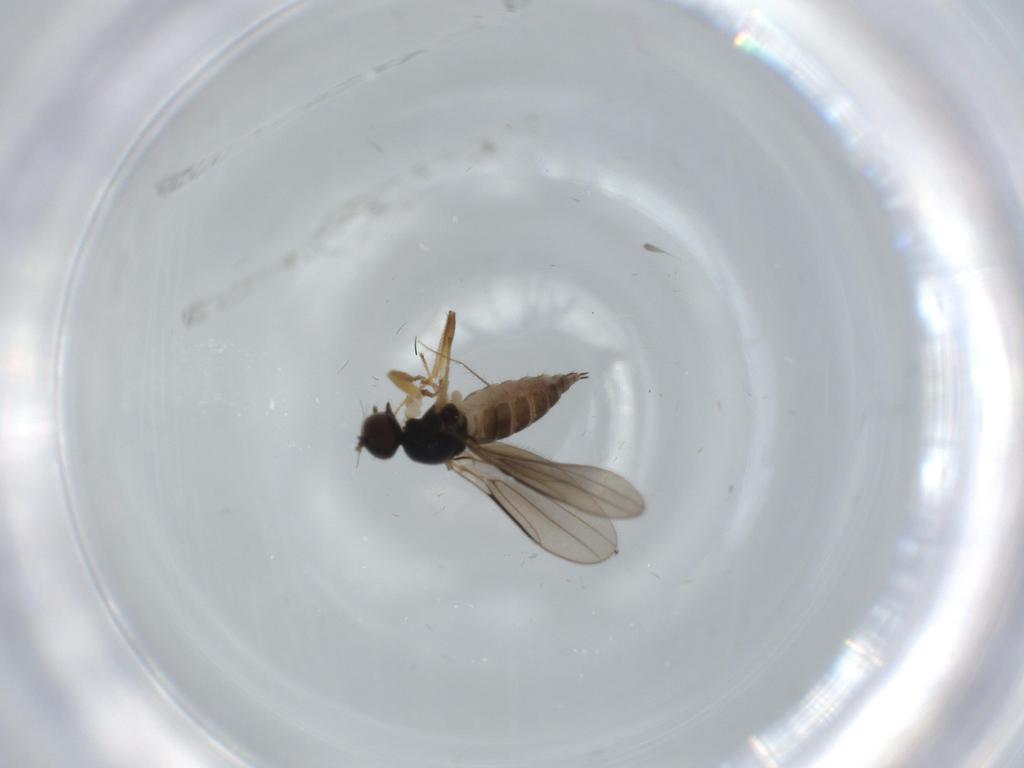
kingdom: Animalia
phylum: Arthropoda
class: Insecta
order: Diptera
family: Hybotidae
